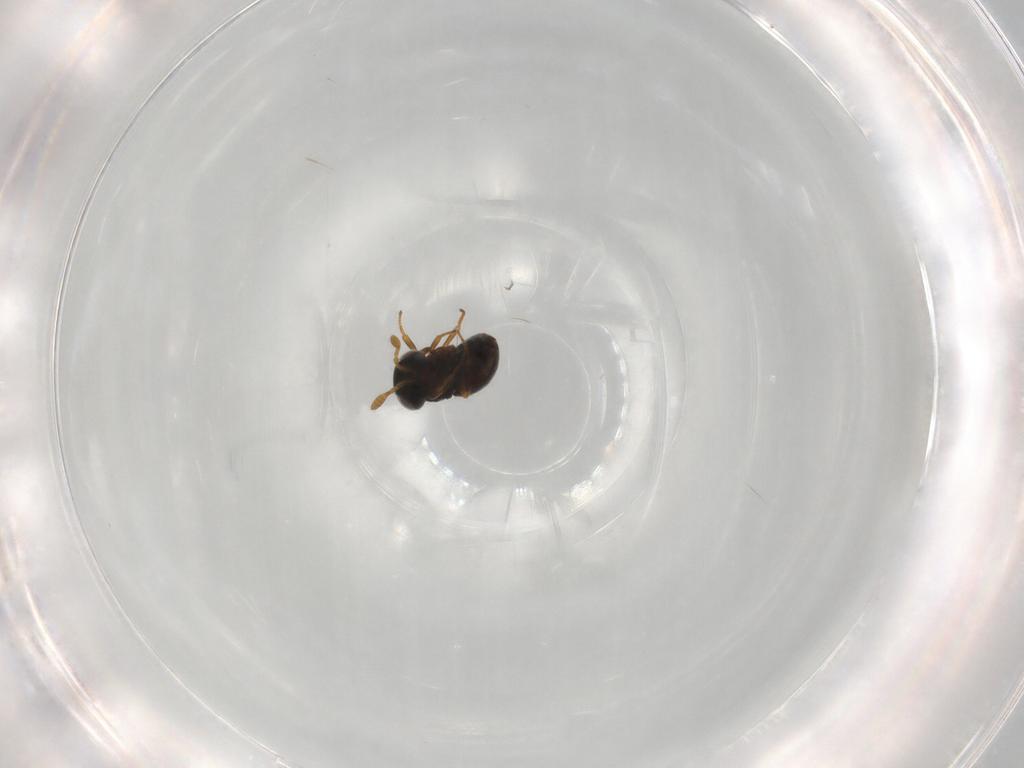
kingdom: Animalia
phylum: Arthropoda
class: Insecta
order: Hymenoptera
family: Scelionidae
